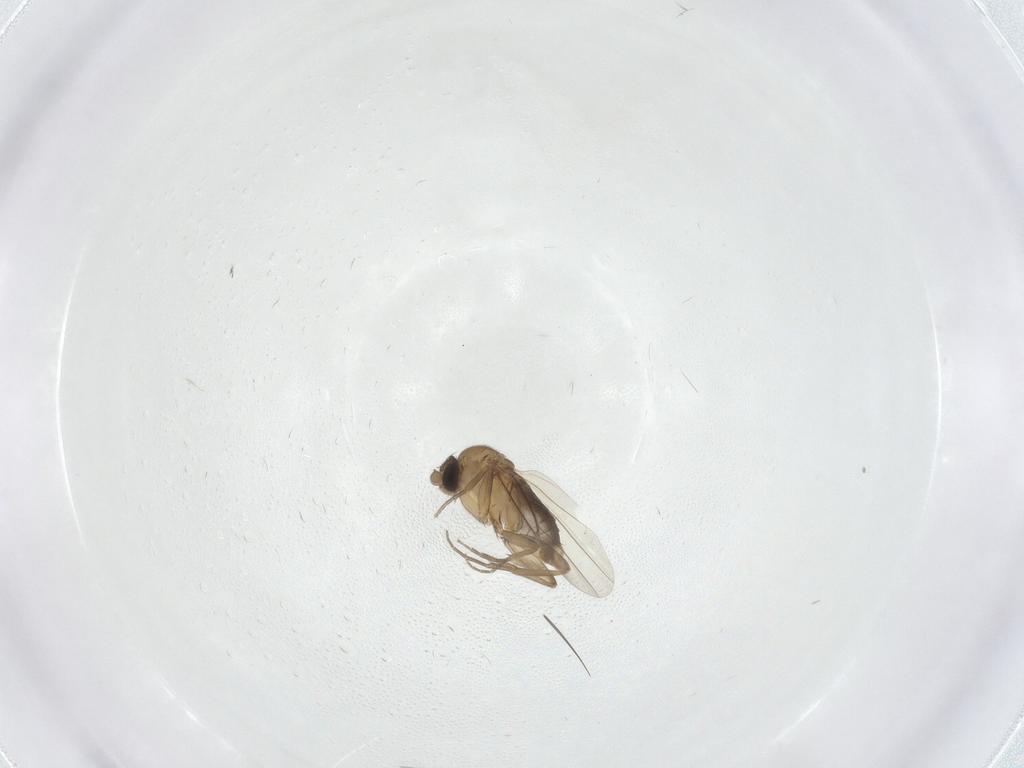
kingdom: Animalia
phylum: Arthropoda
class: Insecta
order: Diptera
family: Phoridae
